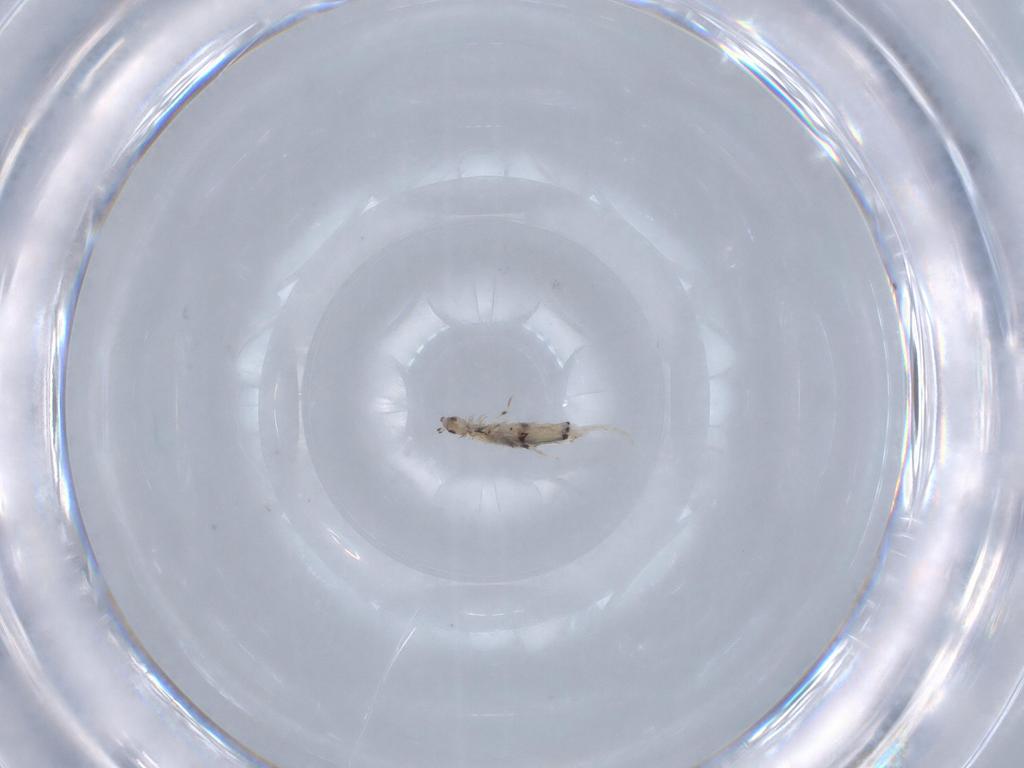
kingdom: Animalia
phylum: Arthropoda
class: Collembola
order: Poduromorpha
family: Hypogastruridae
